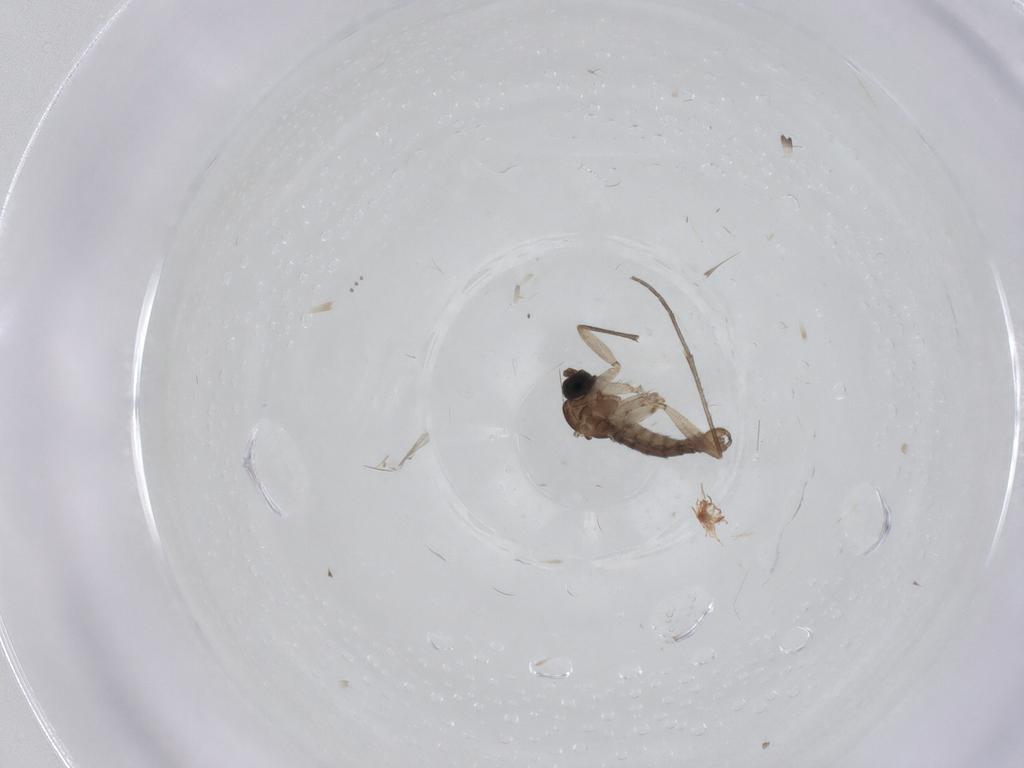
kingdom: Animalia
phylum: Arthropoda
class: Insecta
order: Diptera
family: Sciaridae
